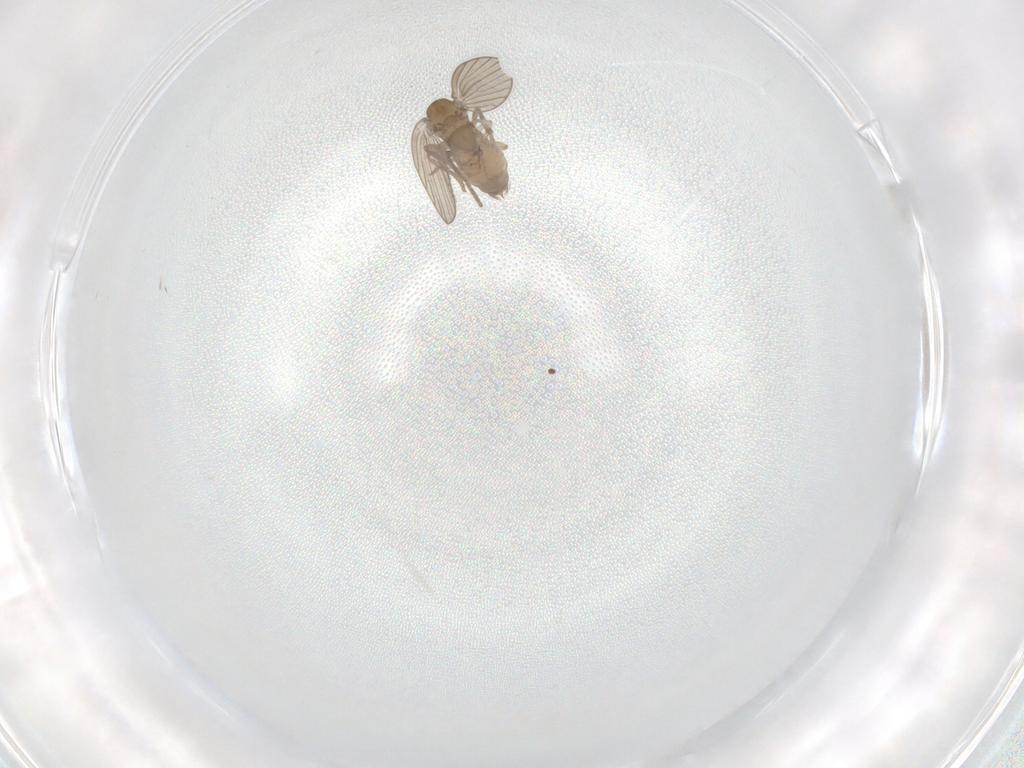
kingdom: Animalia
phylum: Arthropoda
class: Insecta
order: Diptera
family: Psychodidae
